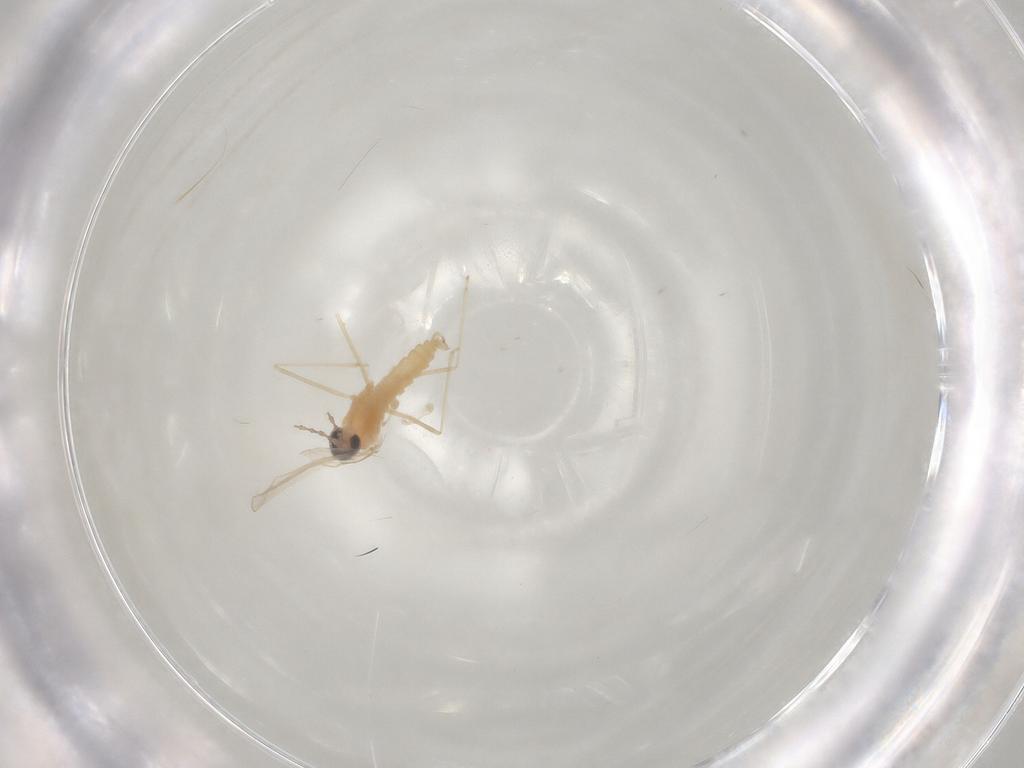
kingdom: Animalia
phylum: Arthropoda
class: Insecta
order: Diptera
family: Cecidomyiidae
